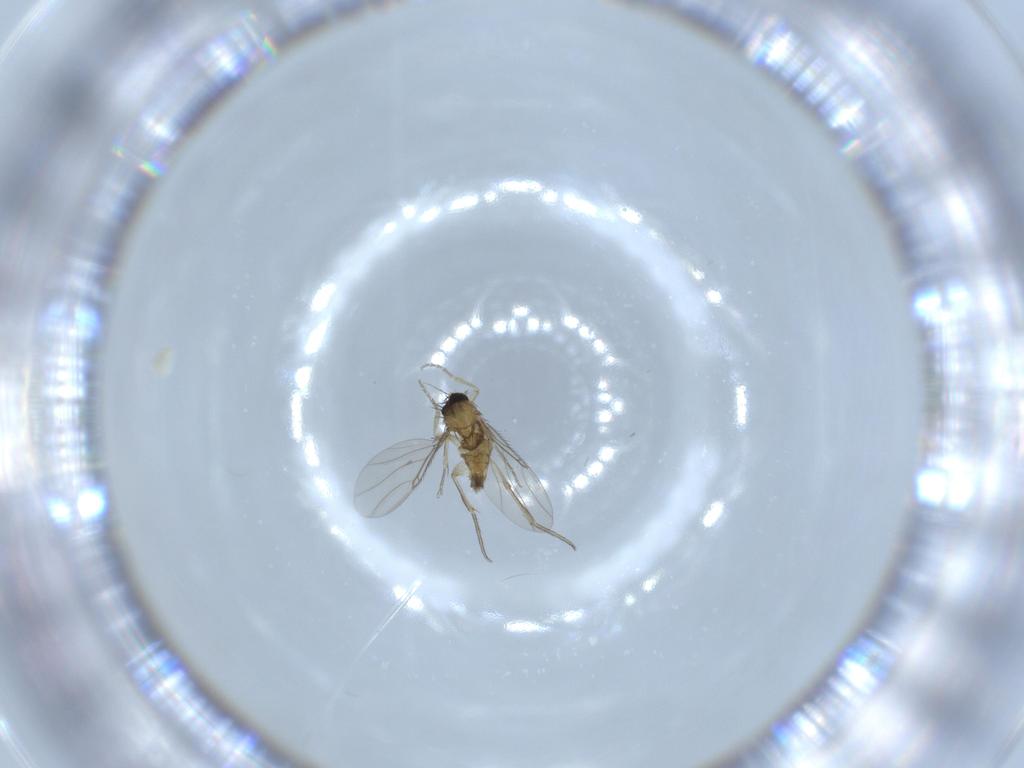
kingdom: Animalia
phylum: Arthropoda
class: Insecta
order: Diptera
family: Phoridae
